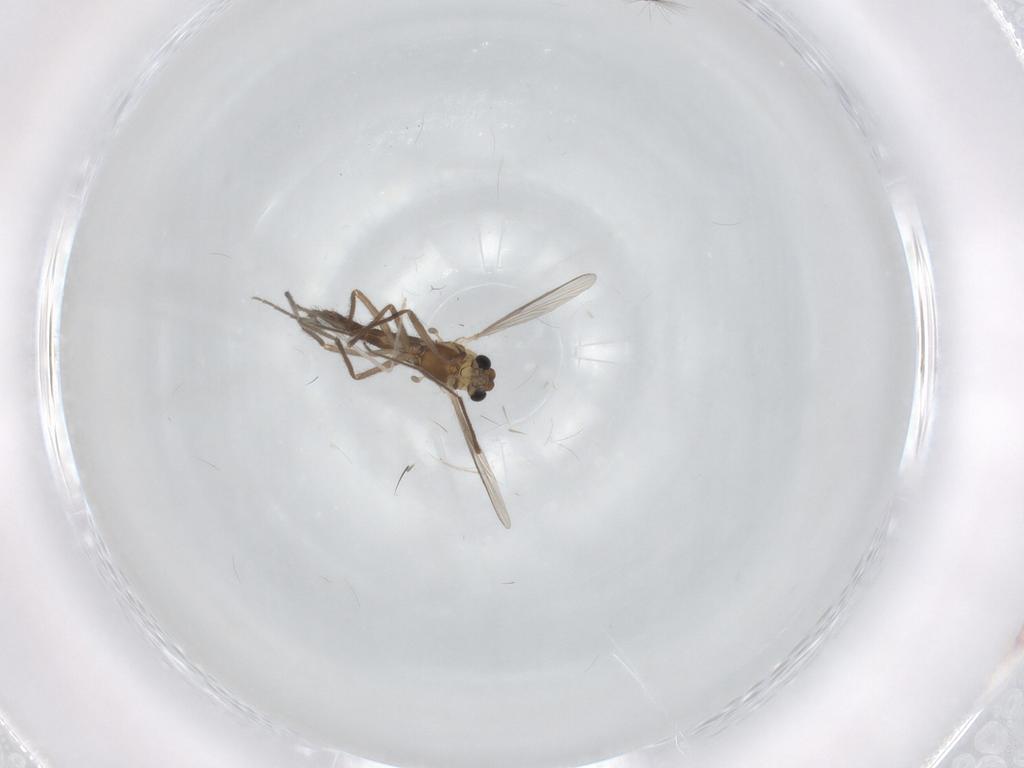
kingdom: Animalia
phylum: Arthropoda
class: Insecta
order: Diptera
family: Chironomidae
